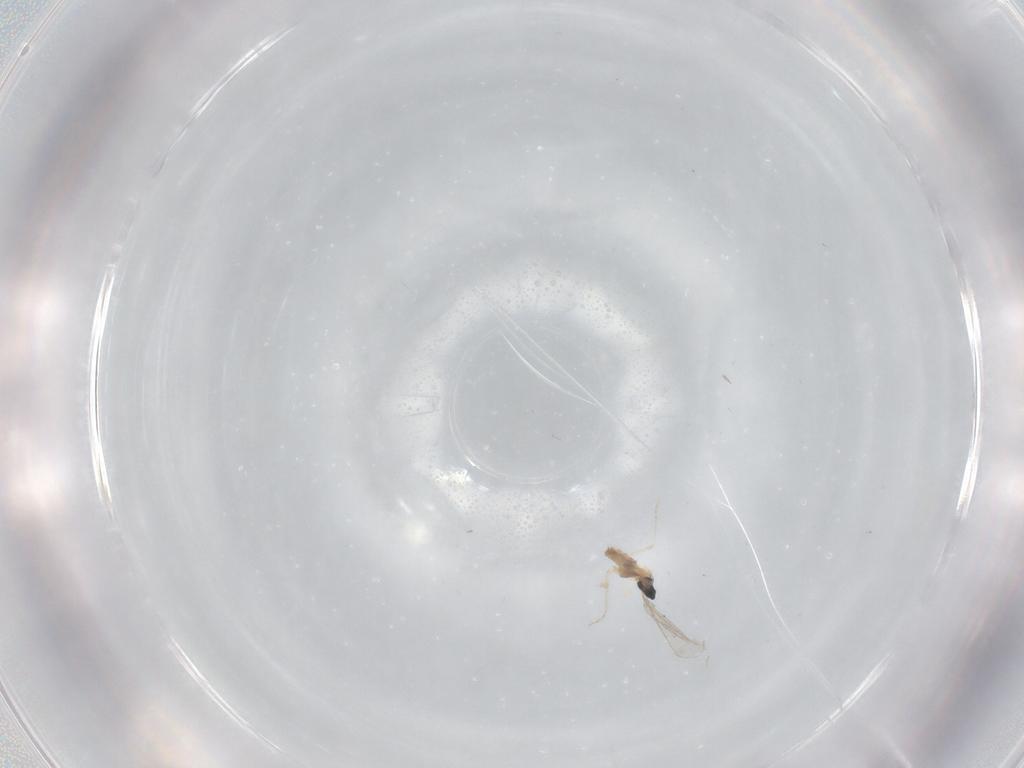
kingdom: Animalia
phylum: Arthropoda
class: Insecta
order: Diptera
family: Cecidomyiidae
